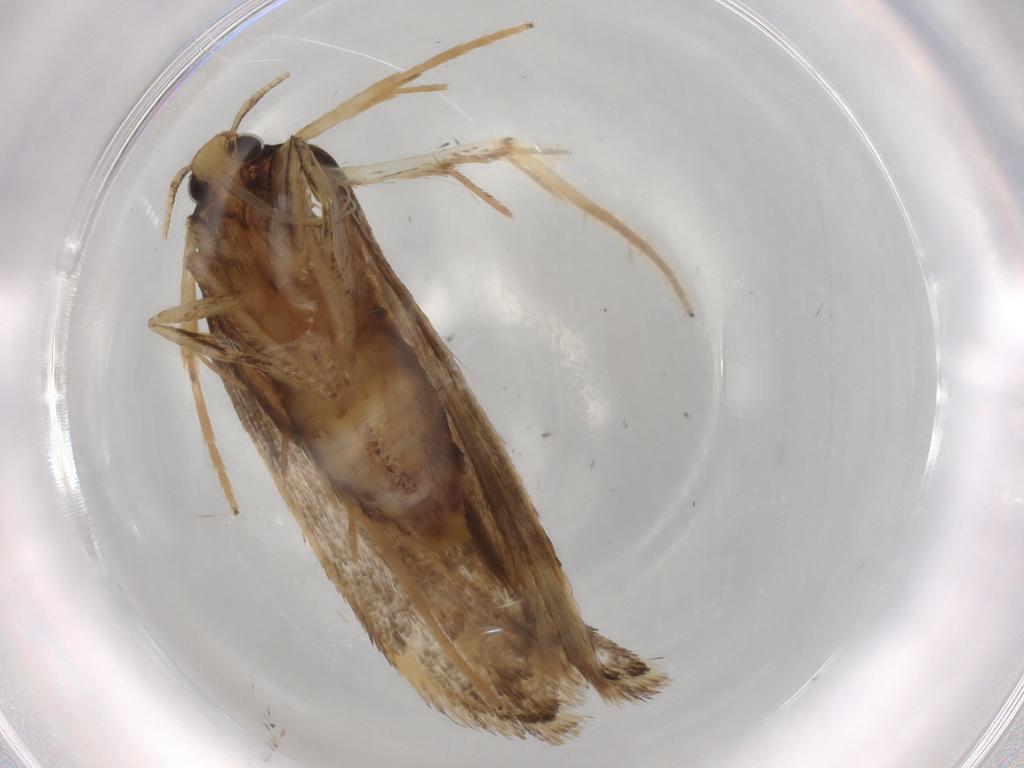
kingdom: Animalia
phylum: Arthropoda
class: Insecta
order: Lepidoptera
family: Lecithoceridae
